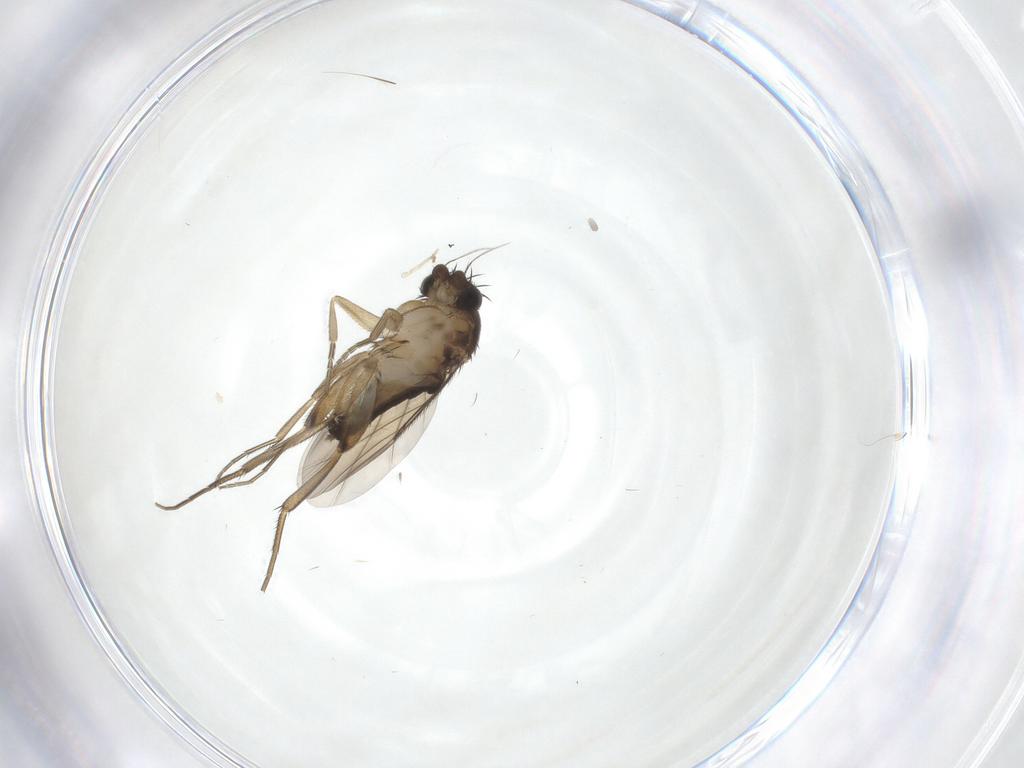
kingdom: Animalia
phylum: Arthropoda
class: Insecta
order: Diptera
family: Phoridae
